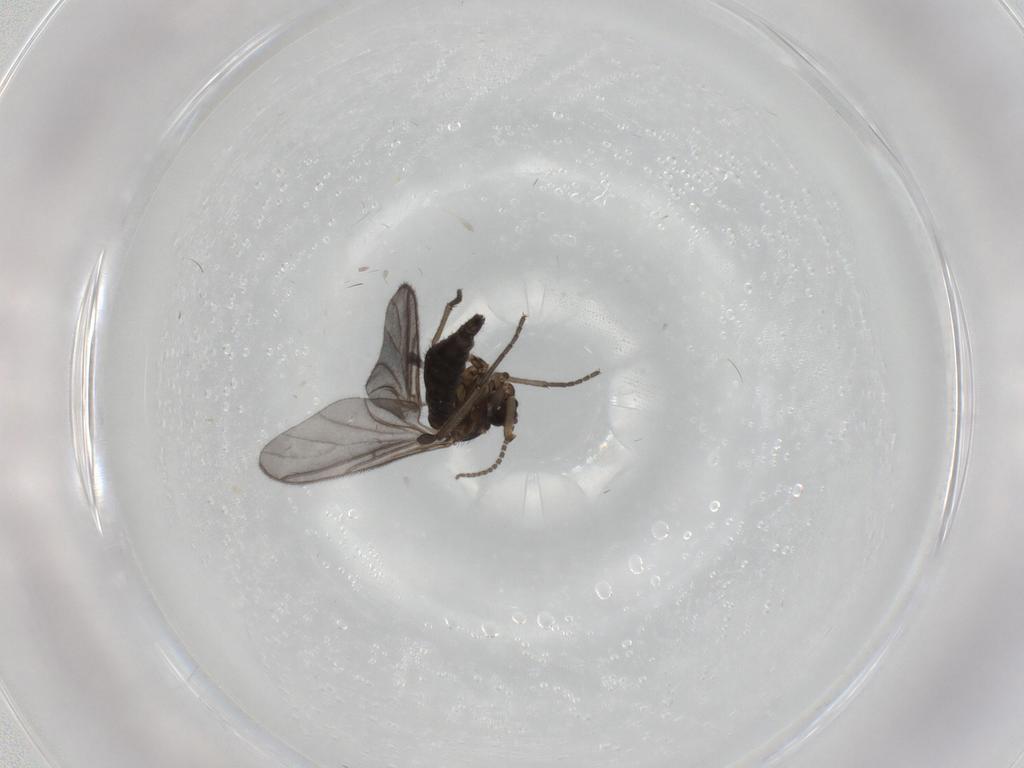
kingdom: Animalia
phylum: Arthropoda
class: Insecta
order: Diptera
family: Sciaridae
